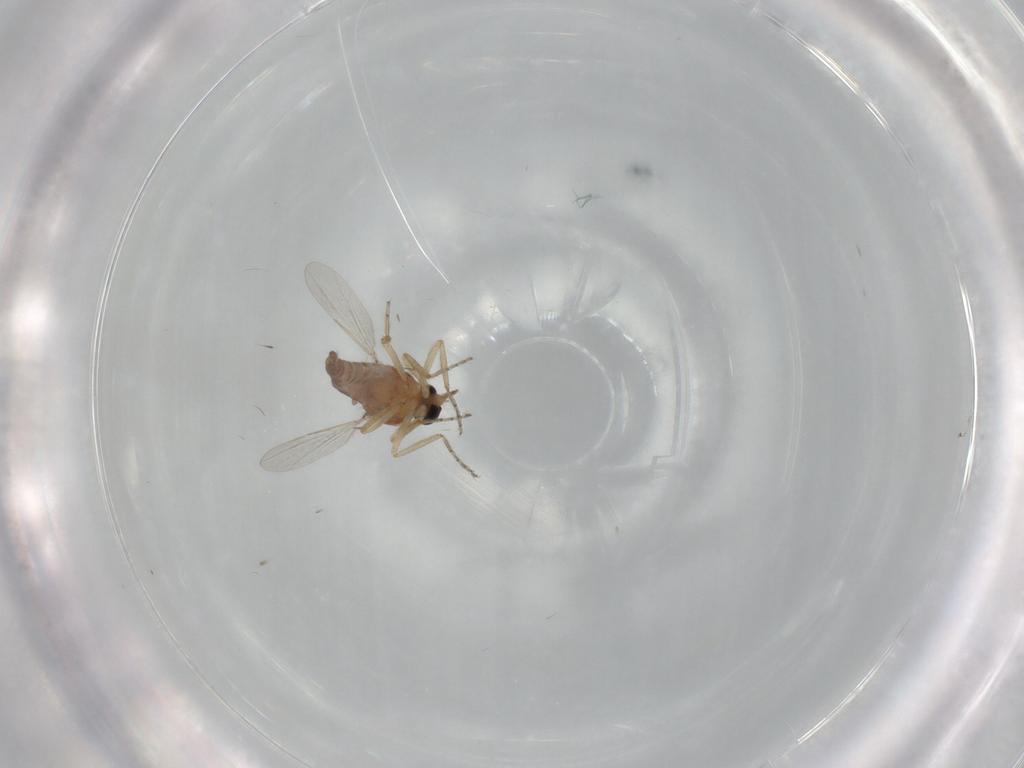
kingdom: Animalia
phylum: Arthropoda
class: Insecta
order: Diptera
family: Ceratopogonidae
